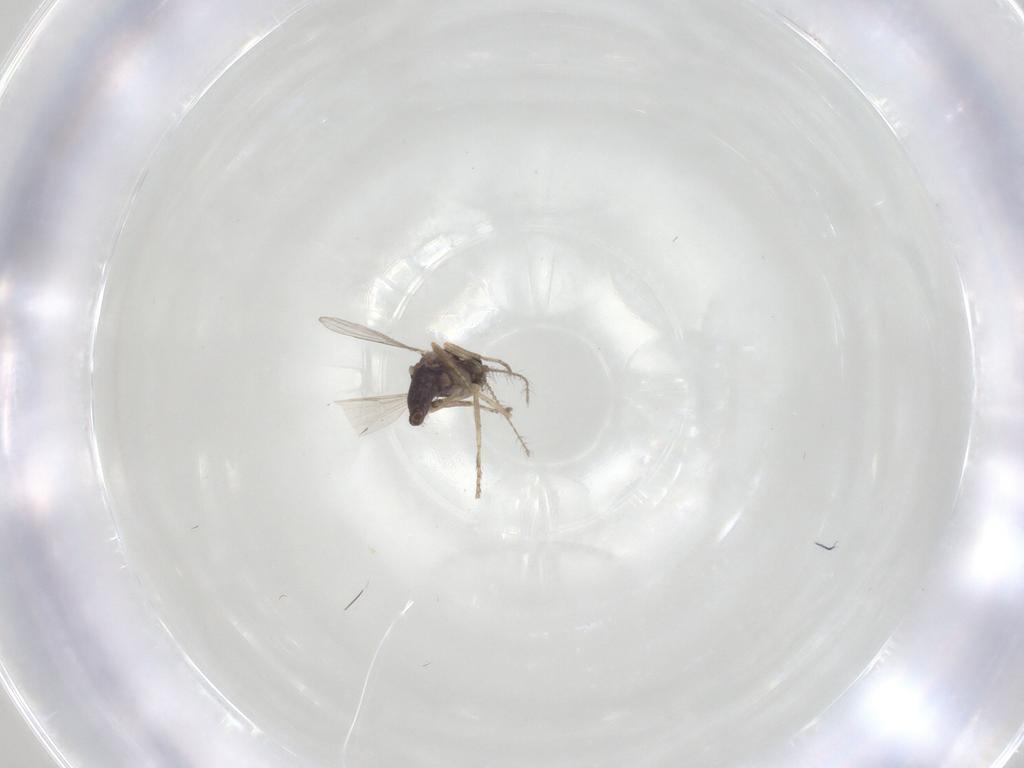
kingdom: Animalia
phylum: Arthropoda
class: Insecta
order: Diptera
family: Ceratopogonidae
